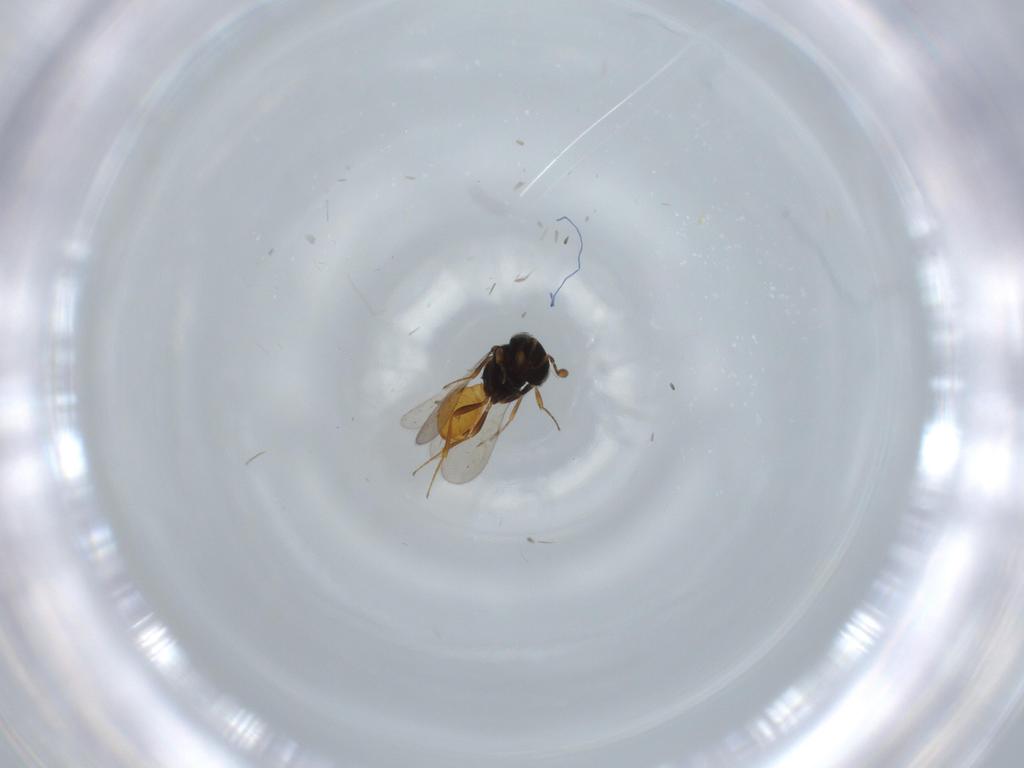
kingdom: Animalia
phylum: Arthropoda
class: Insecta
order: Hymenoptera
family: Scelionidae
